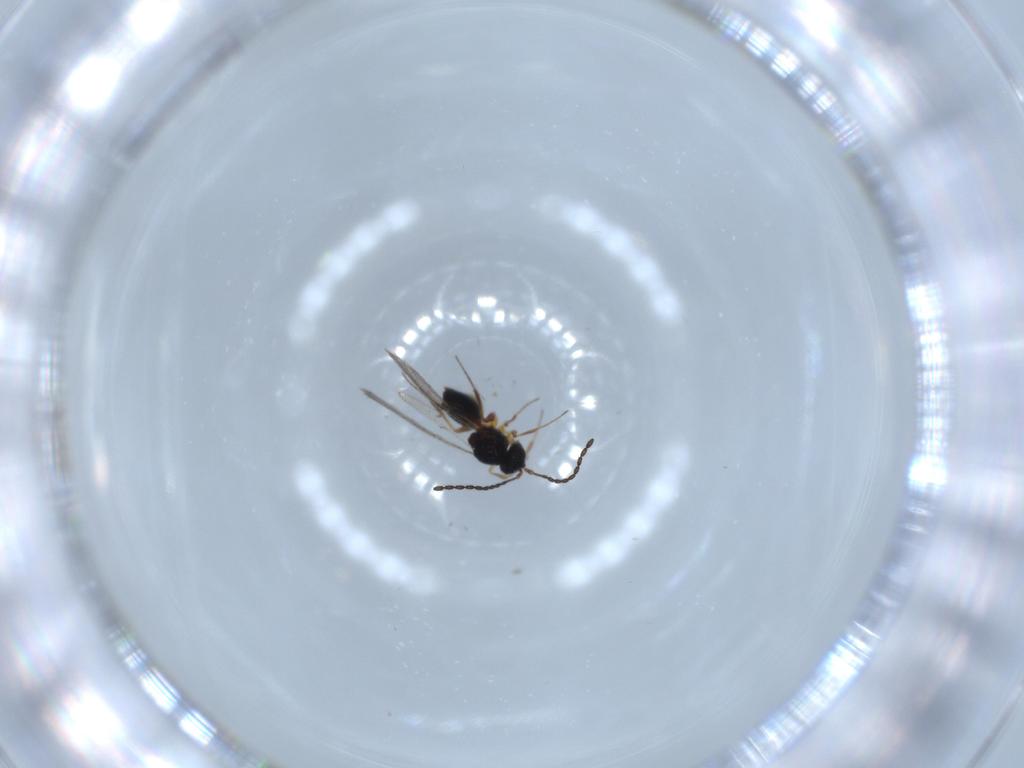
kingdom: Animalia
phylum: Arthropoda
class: Insecta
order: Hymenoptera
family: Figitidae
